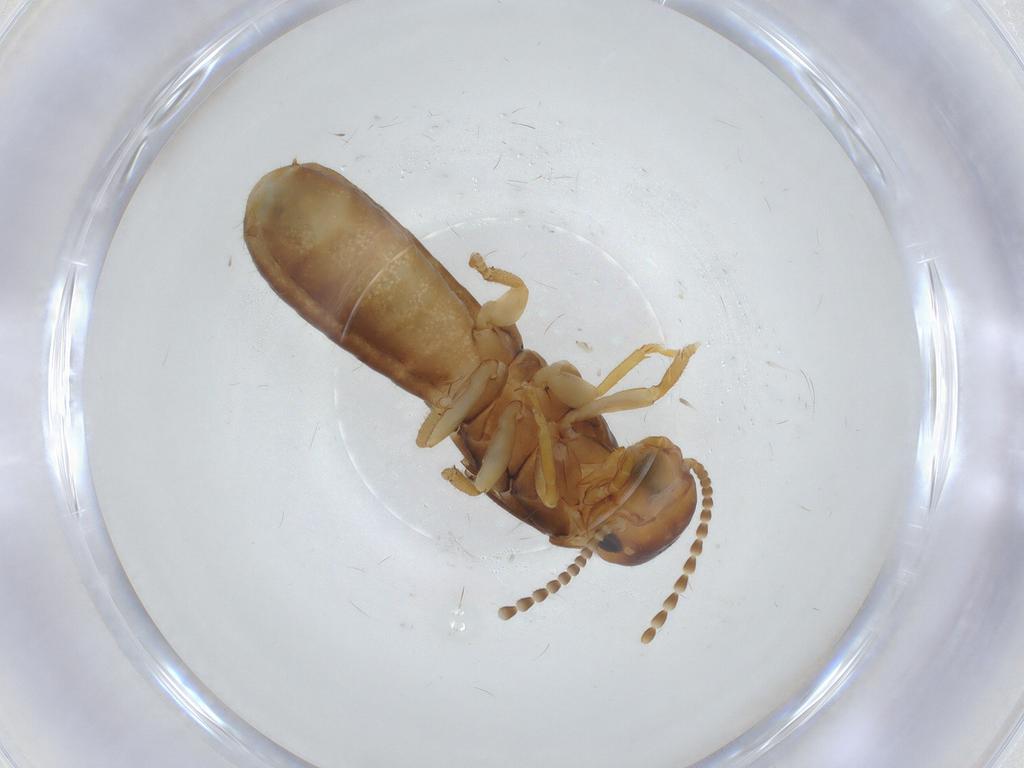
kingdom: Animalia
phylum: Arthropoda
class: Insecta
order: Blattodea
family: Kalotermitidae
